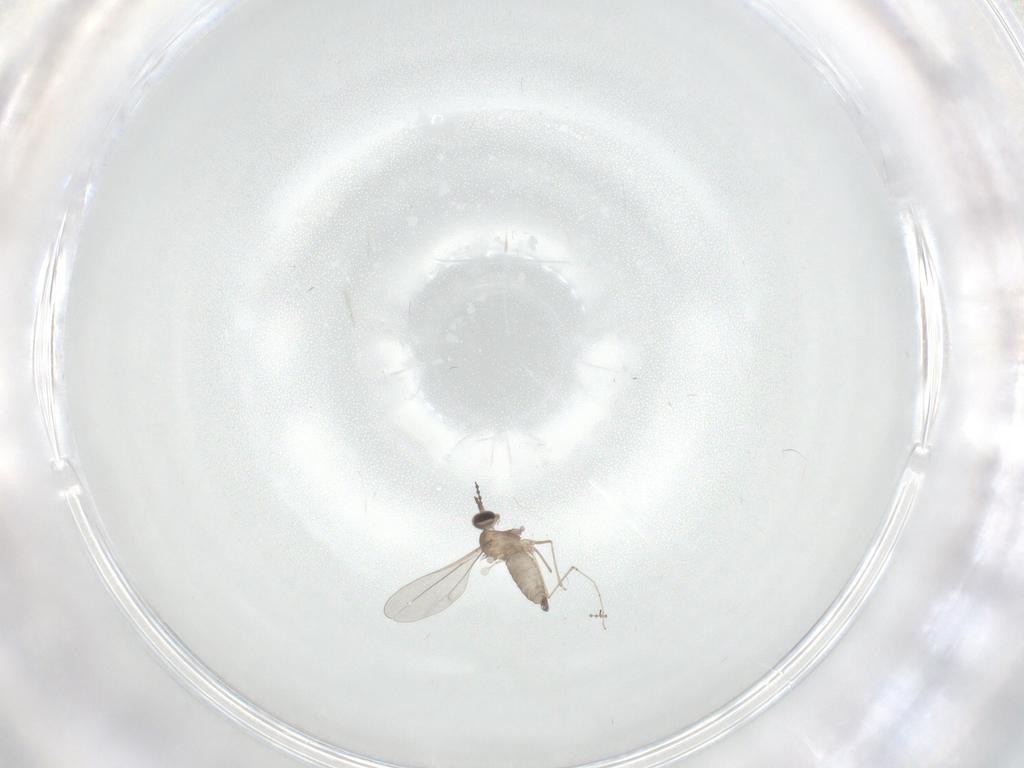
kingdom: Animalia
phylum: Arthropoda
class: Insecta
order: Diptera
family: Cecidomyiidae
